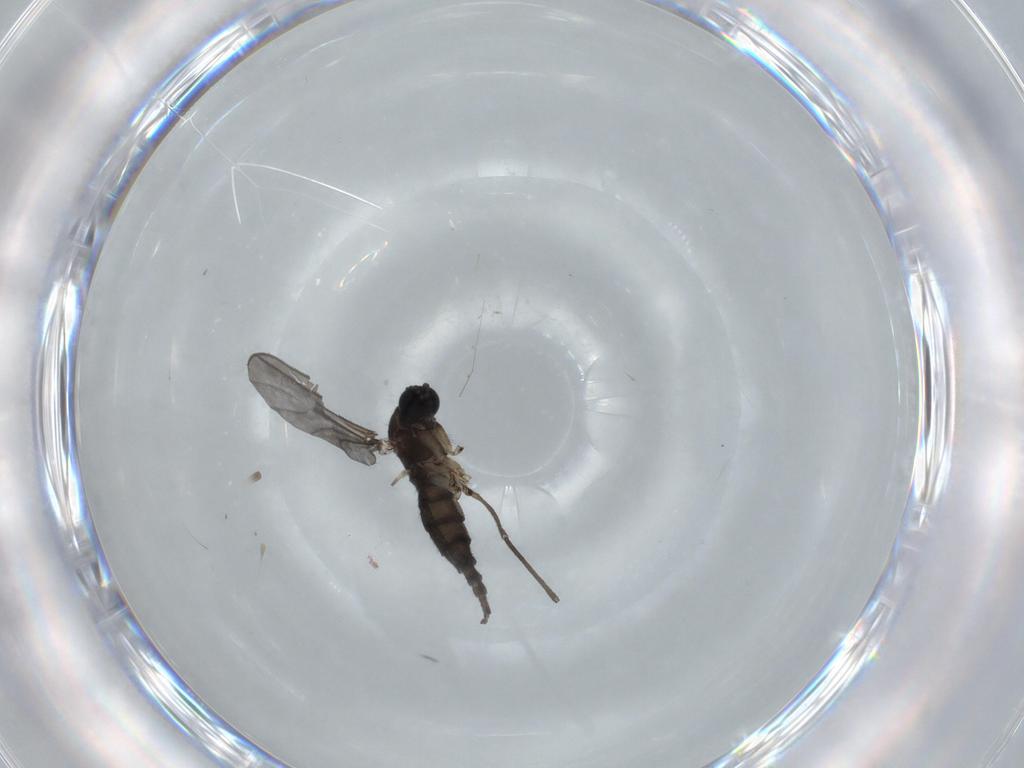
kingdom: Animalia
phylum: Arthropoda
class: Insecta
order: Diptera
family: Sciaridae
